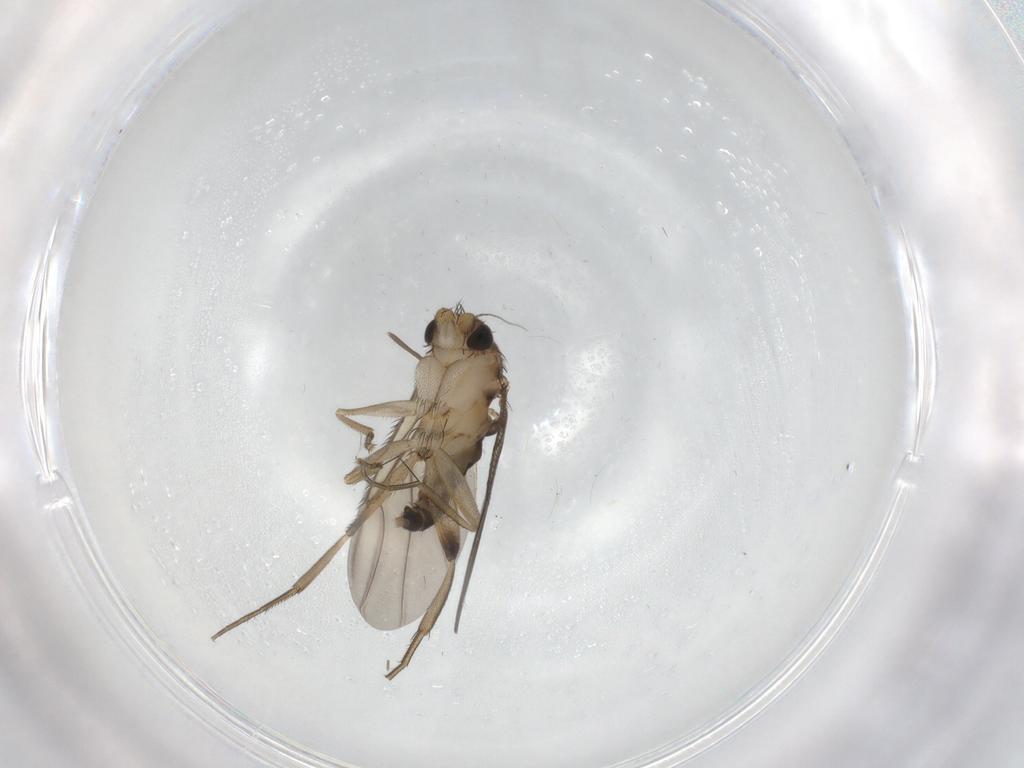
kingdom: Animalia
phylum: Arthropoda
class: Insecta
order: Diptera
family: Phoridae
